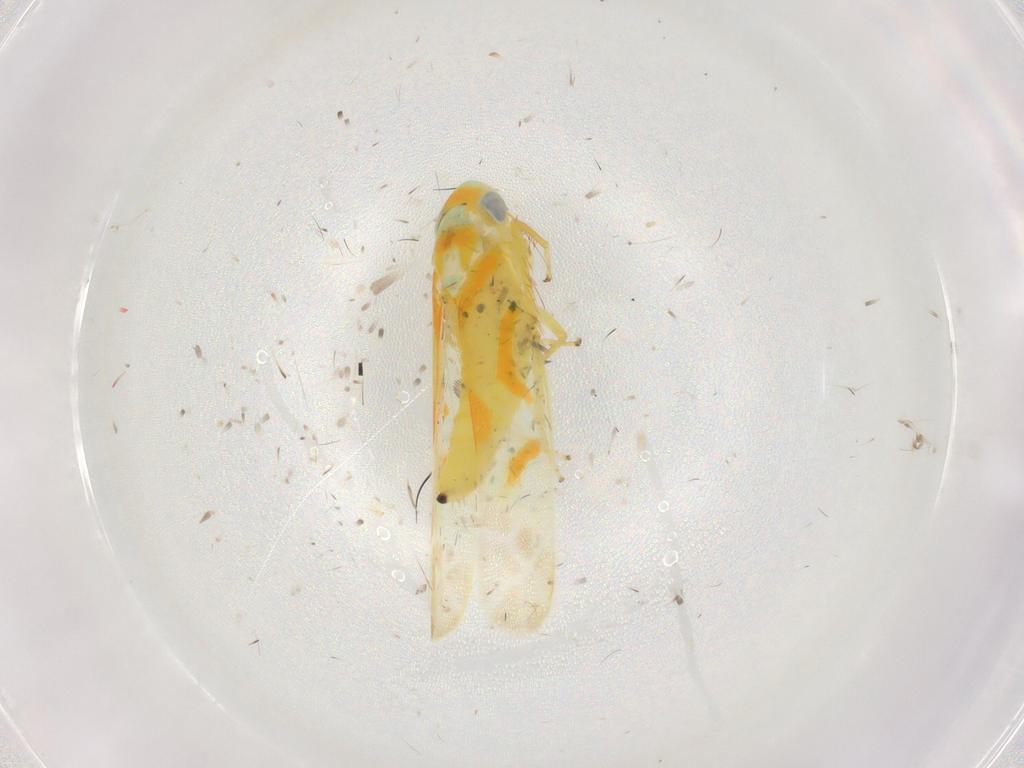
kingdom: Animalia
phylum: Arthropoda
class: Insecta
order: Hemiptera
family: Cicadellidae
